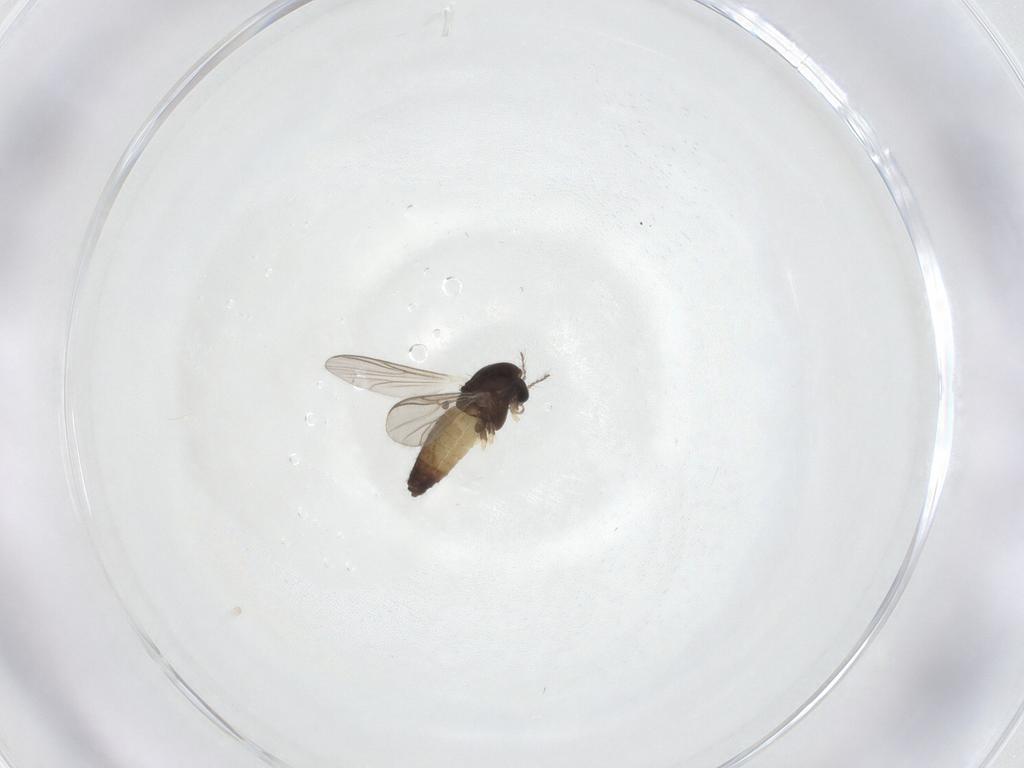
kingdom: Animalia
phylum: Arthropoda
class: Insecta
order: Diptera
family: Chironomidae
